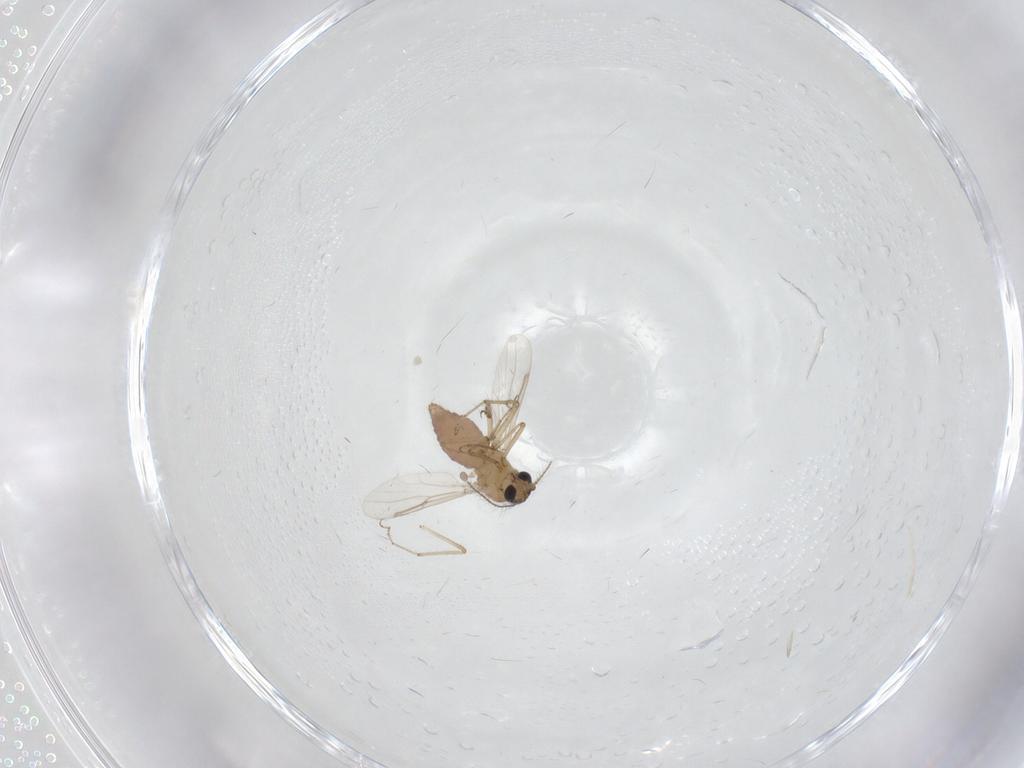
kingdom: Animalia
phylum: Arthropoda
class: Insecta
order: Diptera
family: Ceratopogonidae
